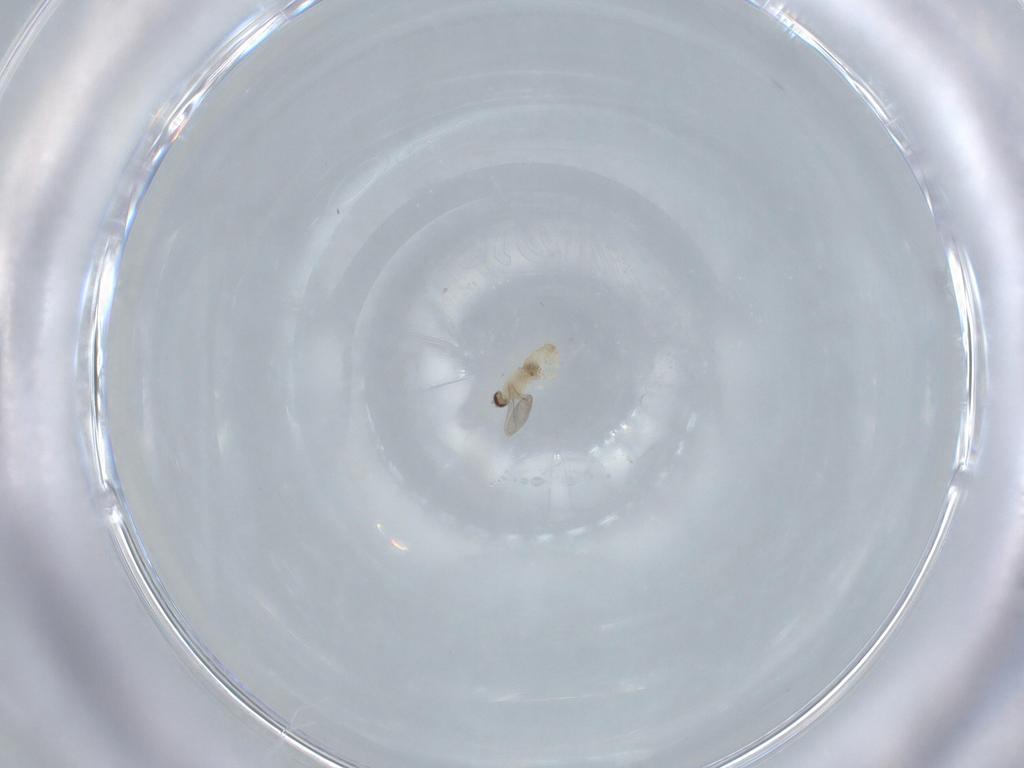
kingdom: Animalia
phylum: Arthropoda
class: Insecta
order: Diptera
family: Cecidomyiidae
